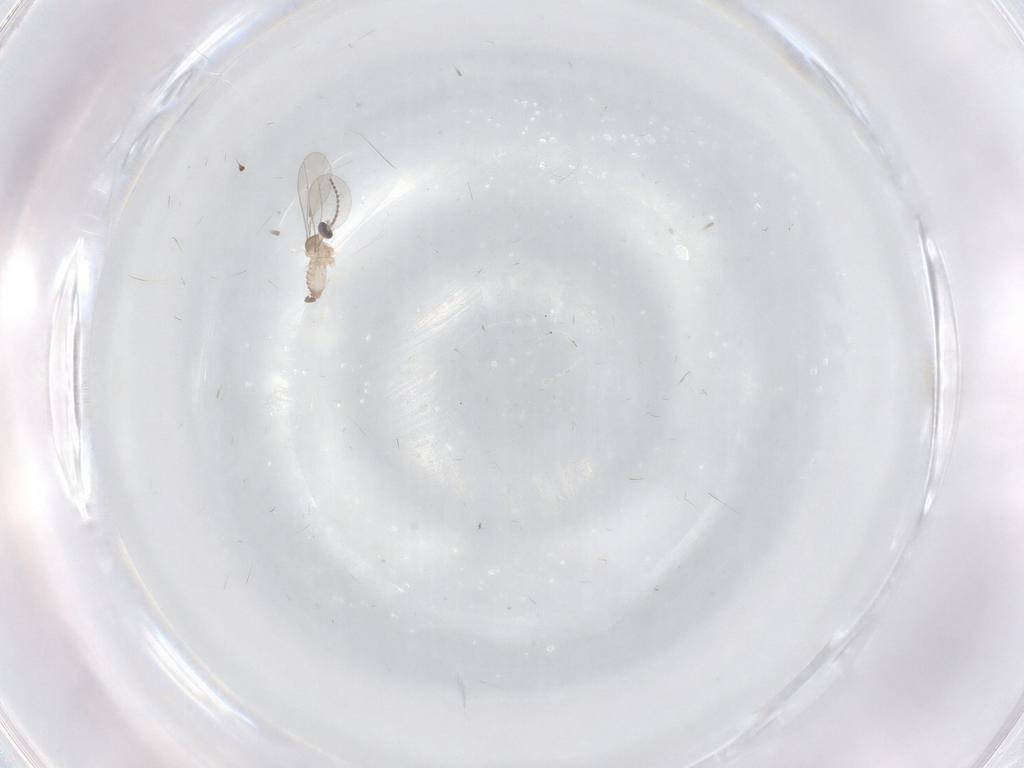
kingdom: Animalia
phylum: Arthropoda
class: Insecta
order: Diptera
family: Cecidomyiidae
